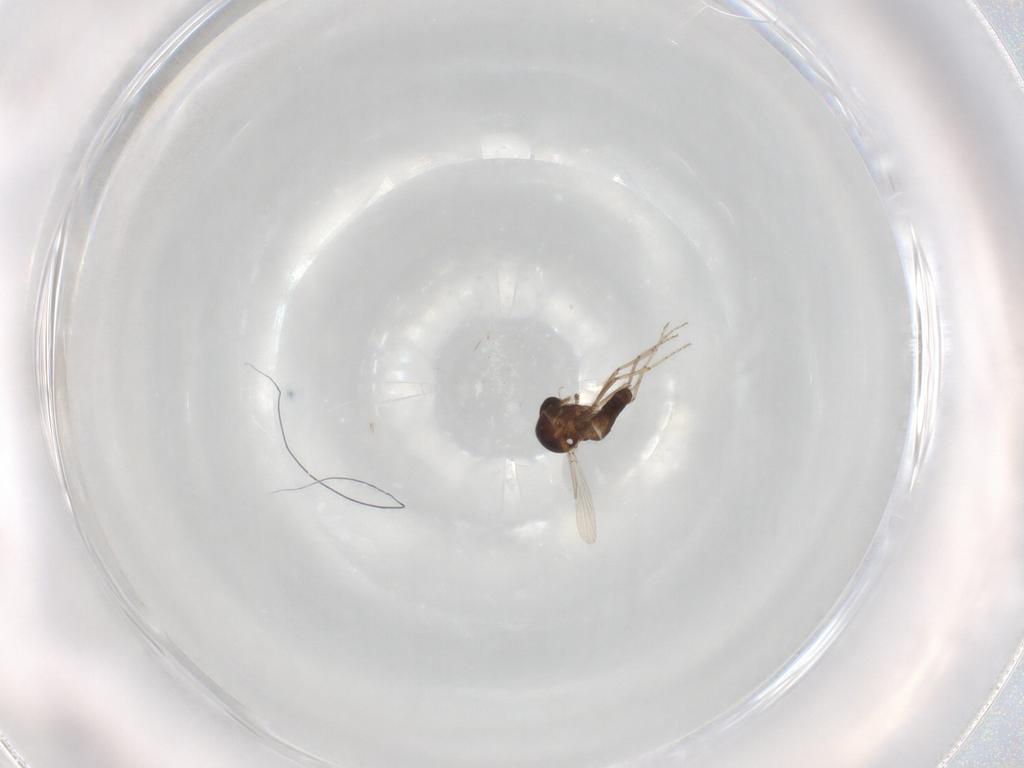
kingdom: Animalia
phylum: Arthropoda
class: Insecta
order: Diptera
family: Ceratopogonidae
